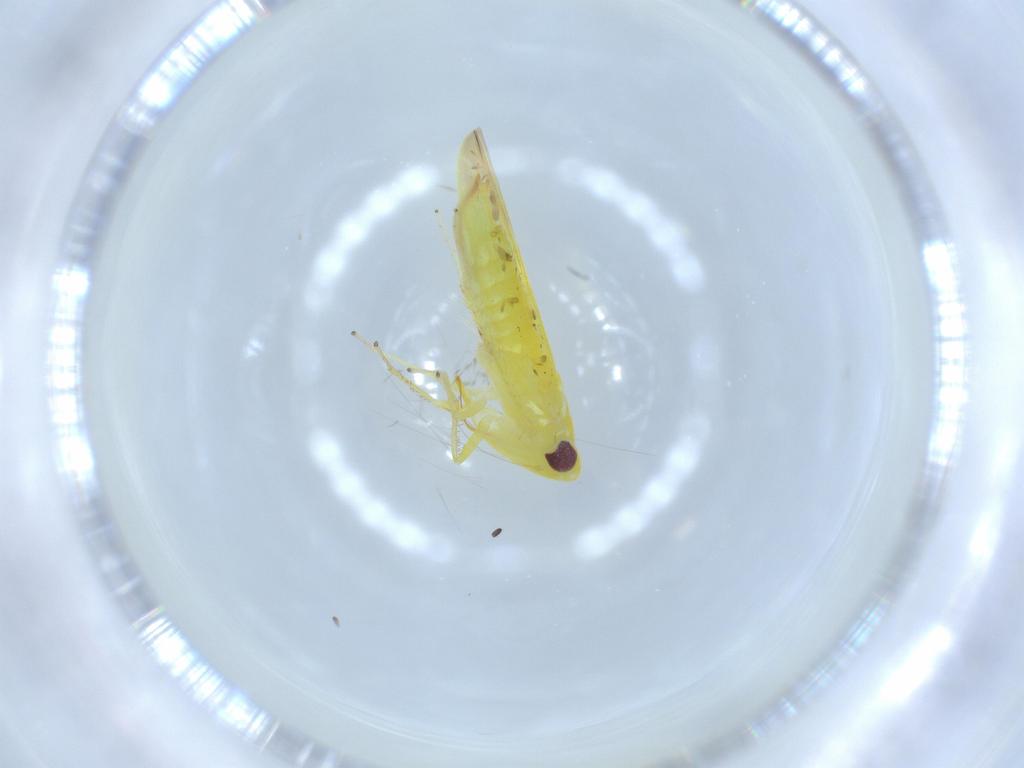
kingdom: Animalia
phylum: Arthropoda
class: Insecta
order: Hemiptera
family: Cicadellidae
